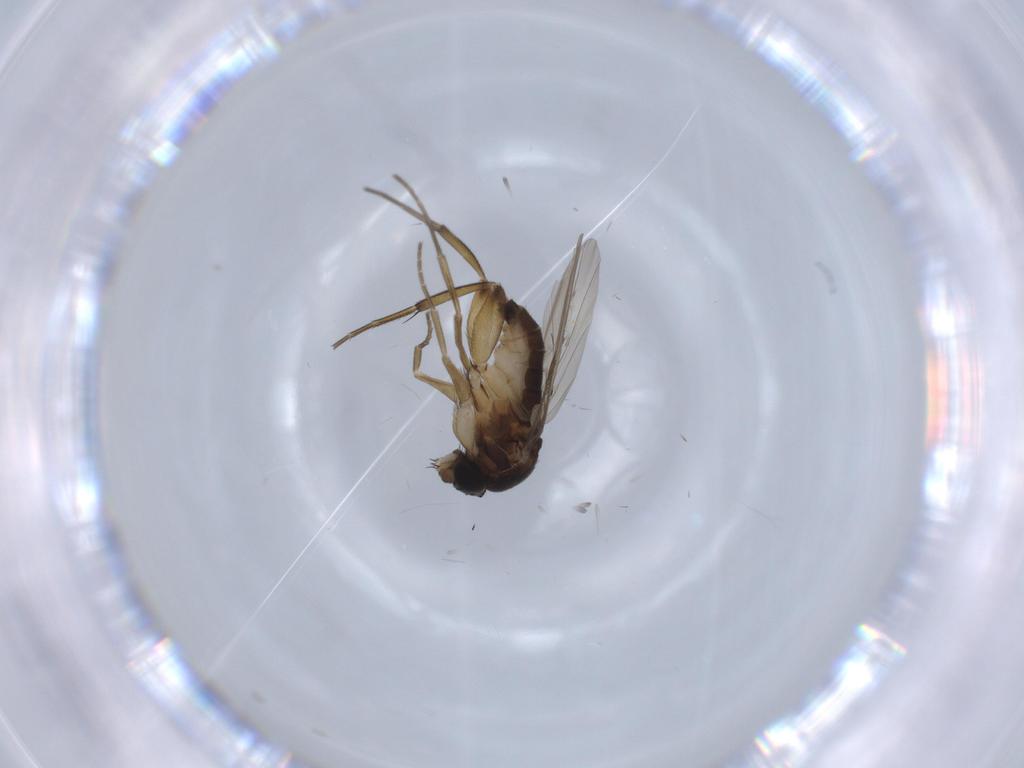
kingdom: Animalia
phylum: Arthropoda
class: Insecta
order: Diptera
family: Phoridae
